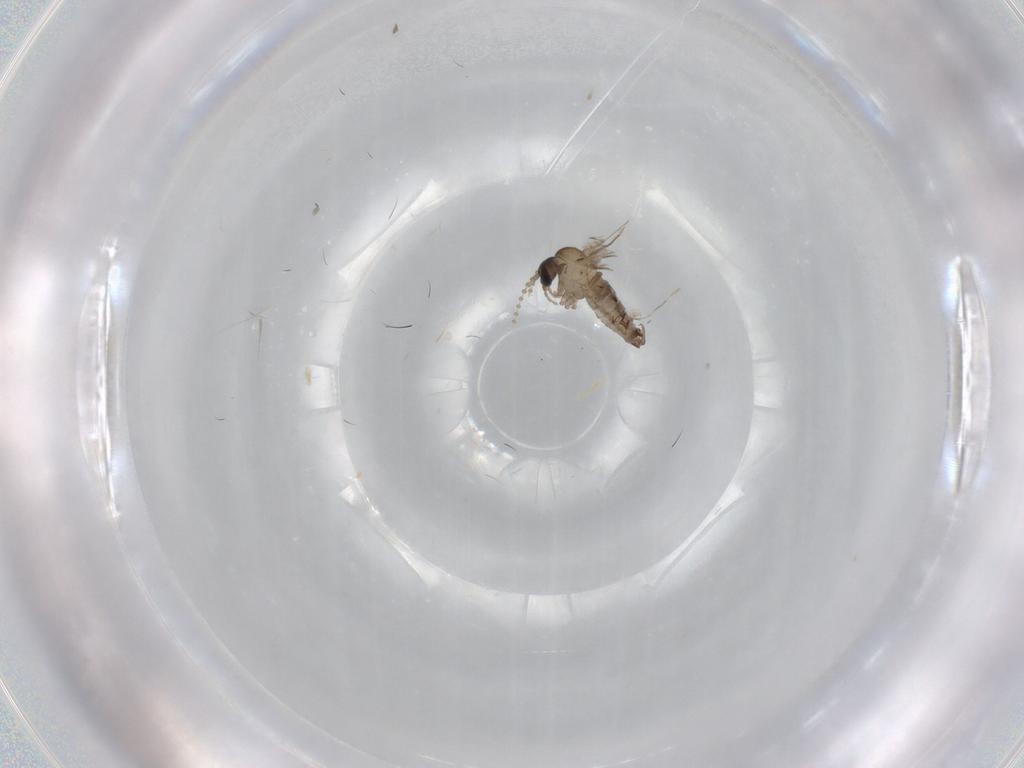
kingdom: Animalia
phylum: Arthropoda
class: Insecta
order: Diptera
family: Psychodidae
